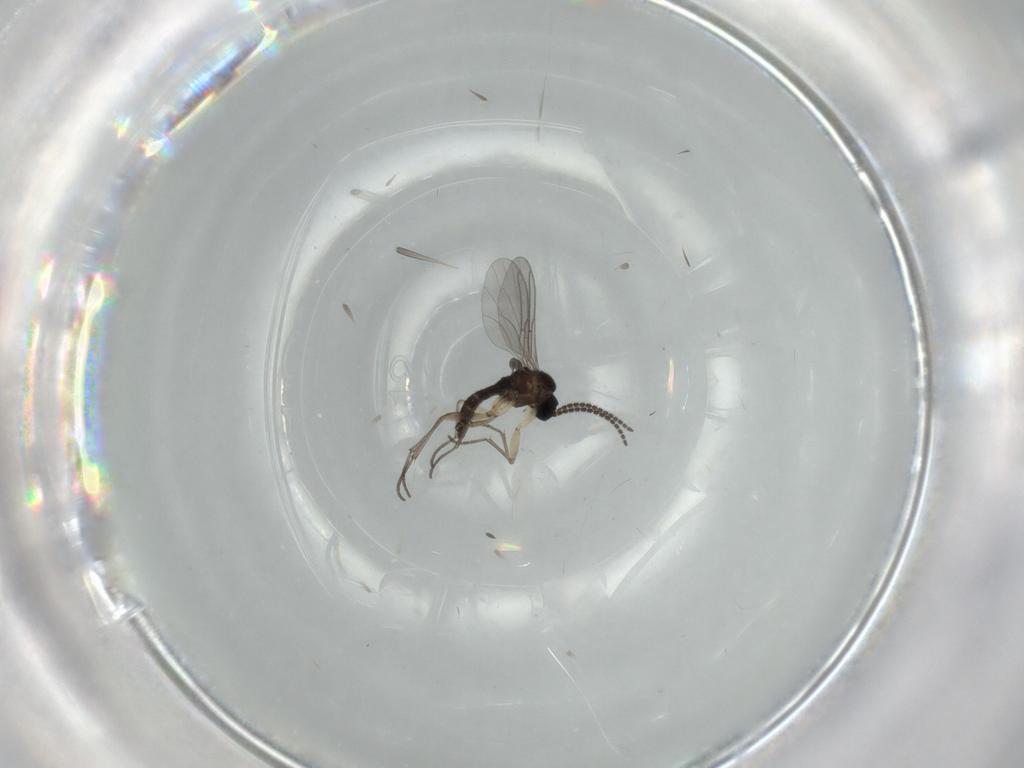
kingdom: Animalia
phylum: Arthropoda
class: Insecta
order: Diptera
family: Sciaridae
